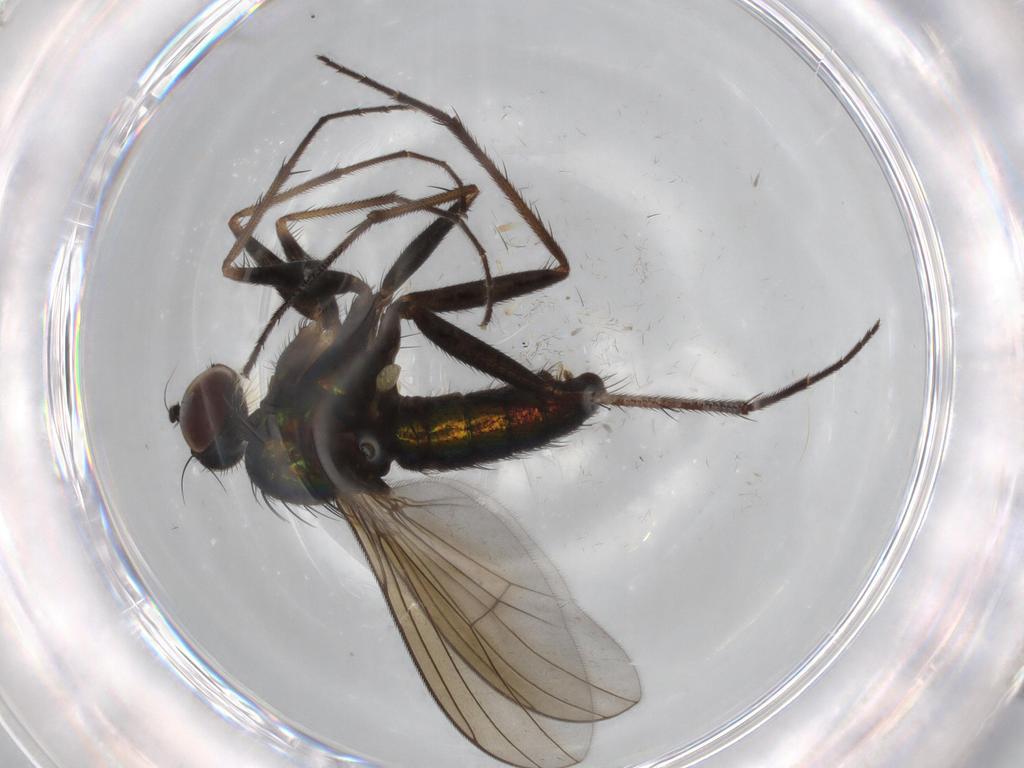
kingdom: Animalia
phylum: Arthropoda
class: Insecta
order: Diptera
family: Dolichopodidae
